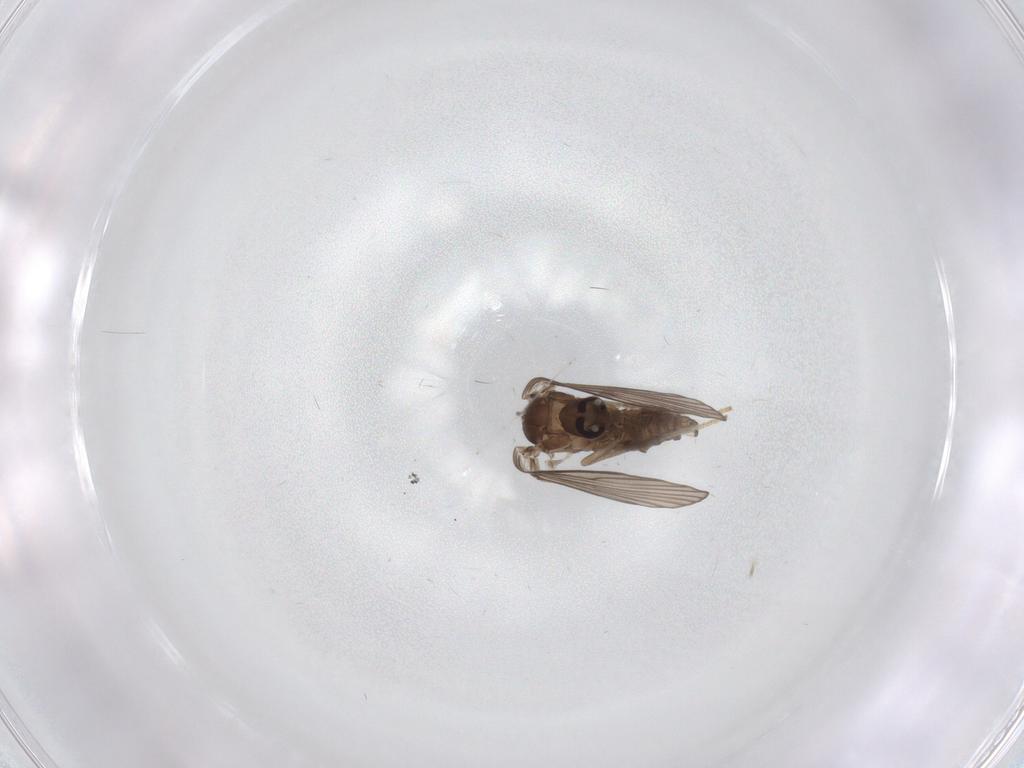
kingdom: Animalia
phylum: Arthropoda
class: Insecta
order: Diptera
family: Psychodidae
